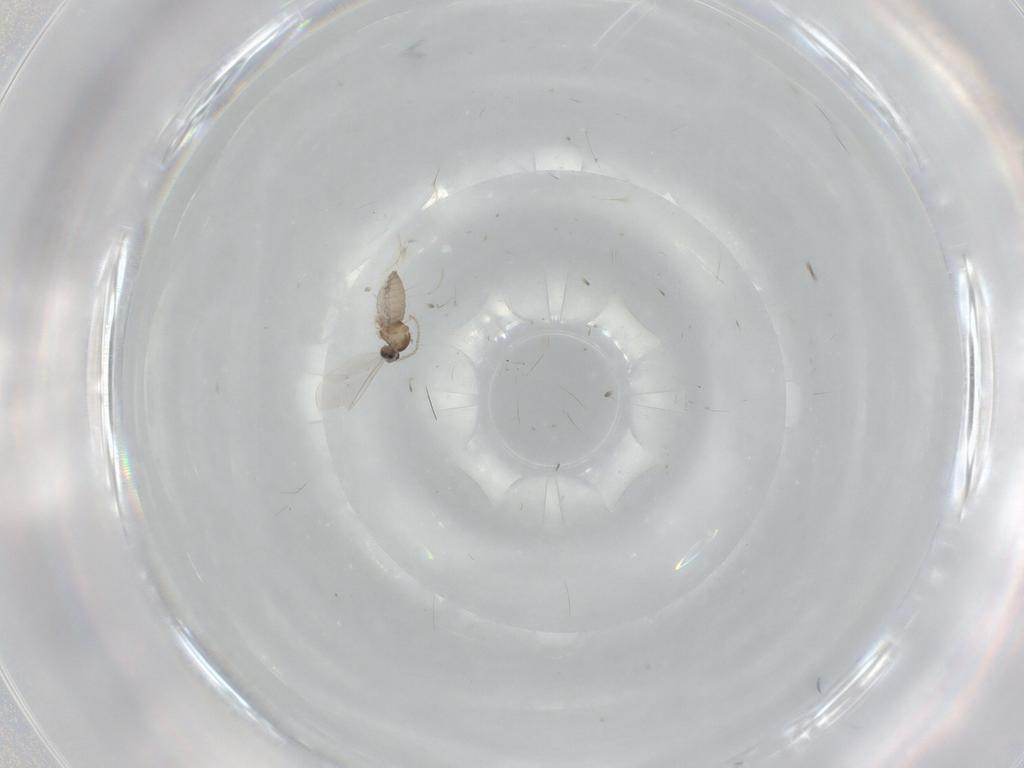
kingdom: Animalia
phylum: Arthropoda
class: Insecta
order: Diptera
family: Cecidomyiidae
